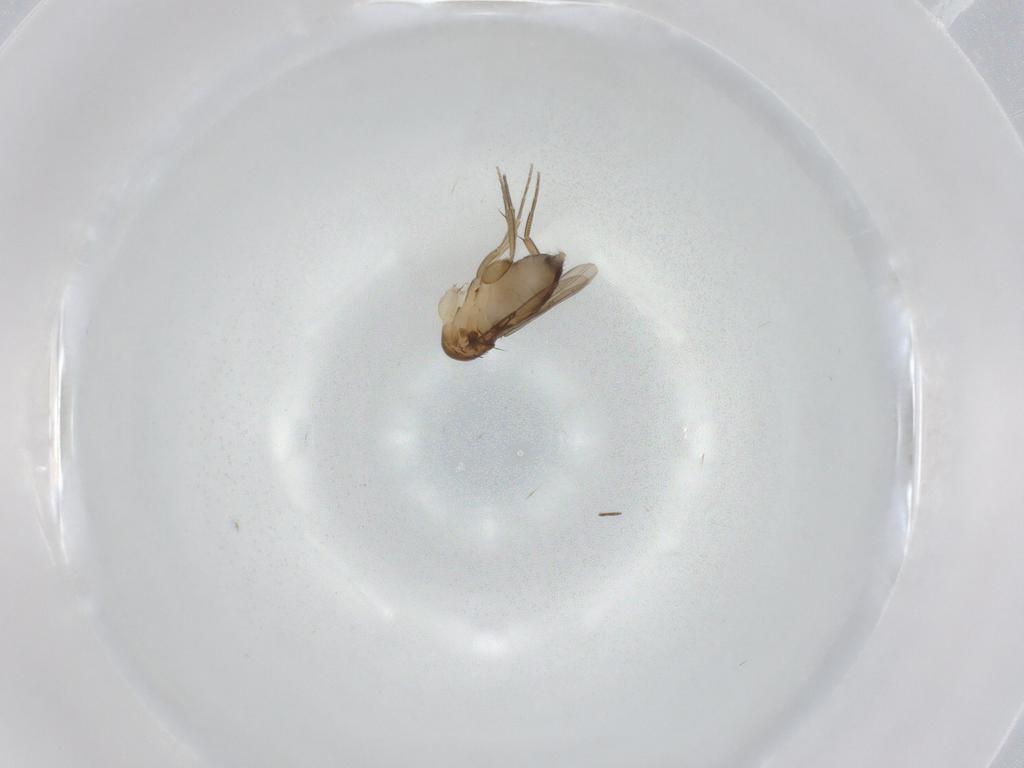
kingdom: Animalia
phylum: Arthropoda
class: Insecta
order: Diptera
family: Phoridae
